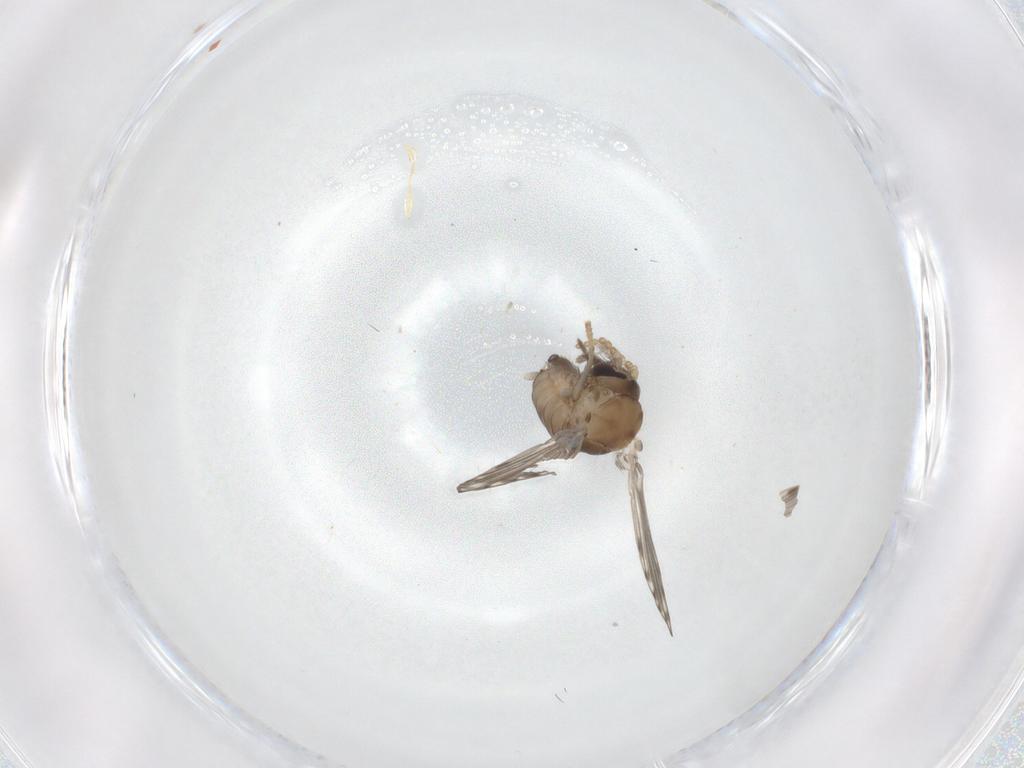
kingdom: Animalia
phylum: Arthropoda
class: Insecta
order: Diptera
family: Psychodidae
